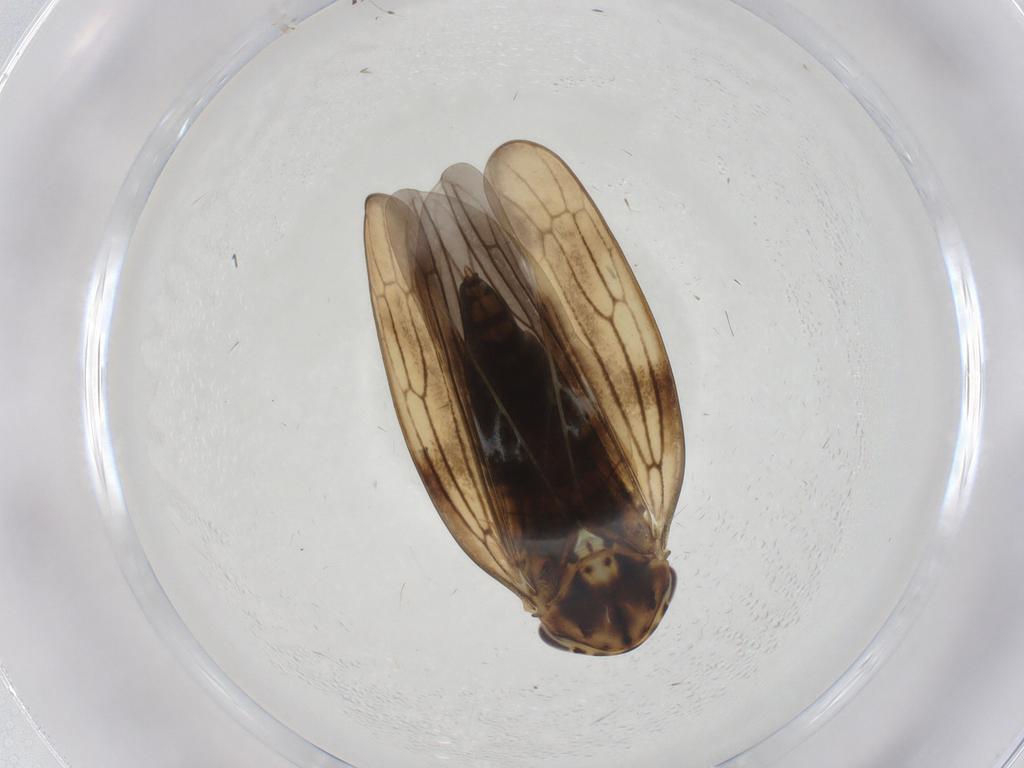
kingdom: Animalia
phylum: Arthropoda
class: Insecta
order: Hemiptera
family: Cicadellidae
